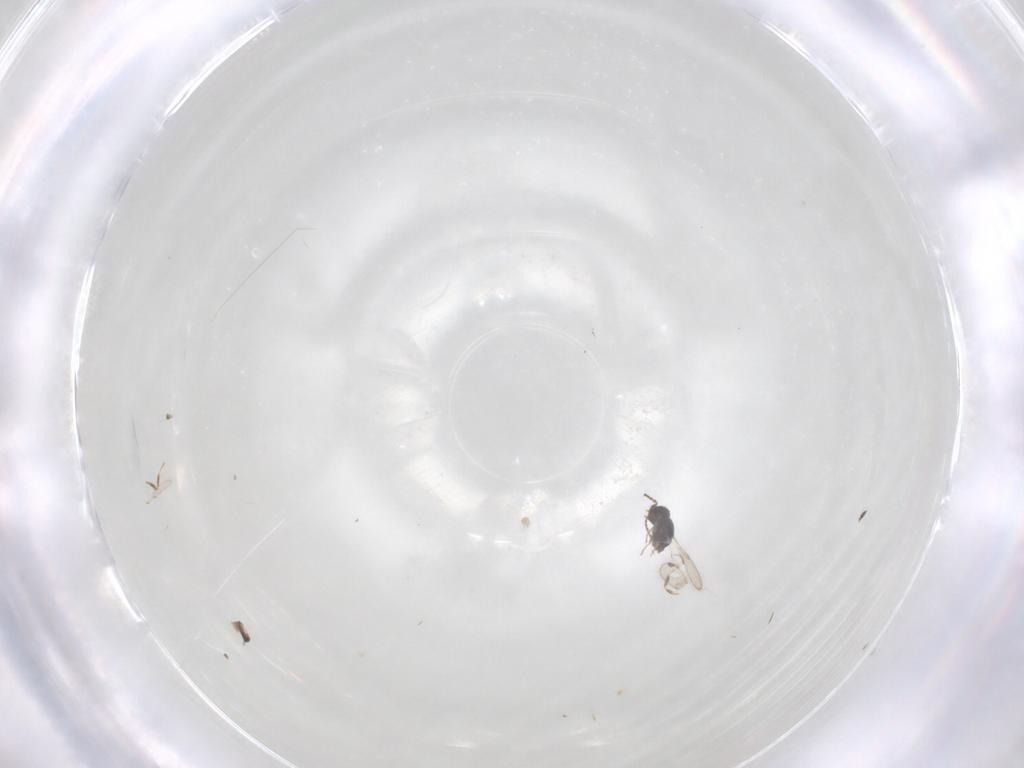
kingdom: Animalia
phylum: Arthropoda
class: Insecta
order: Hymenoptera
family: Scelionidae
